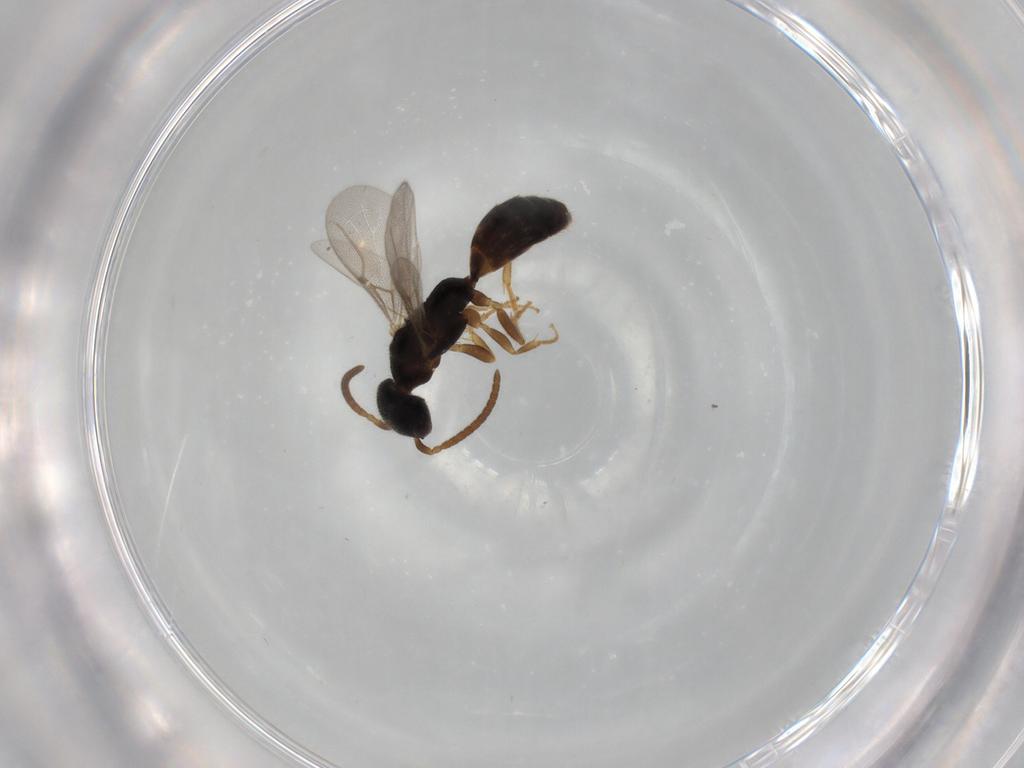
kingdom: Animalia
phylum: Arthropoda
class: Insecta
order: Hymenoptera
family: Bethylidae
